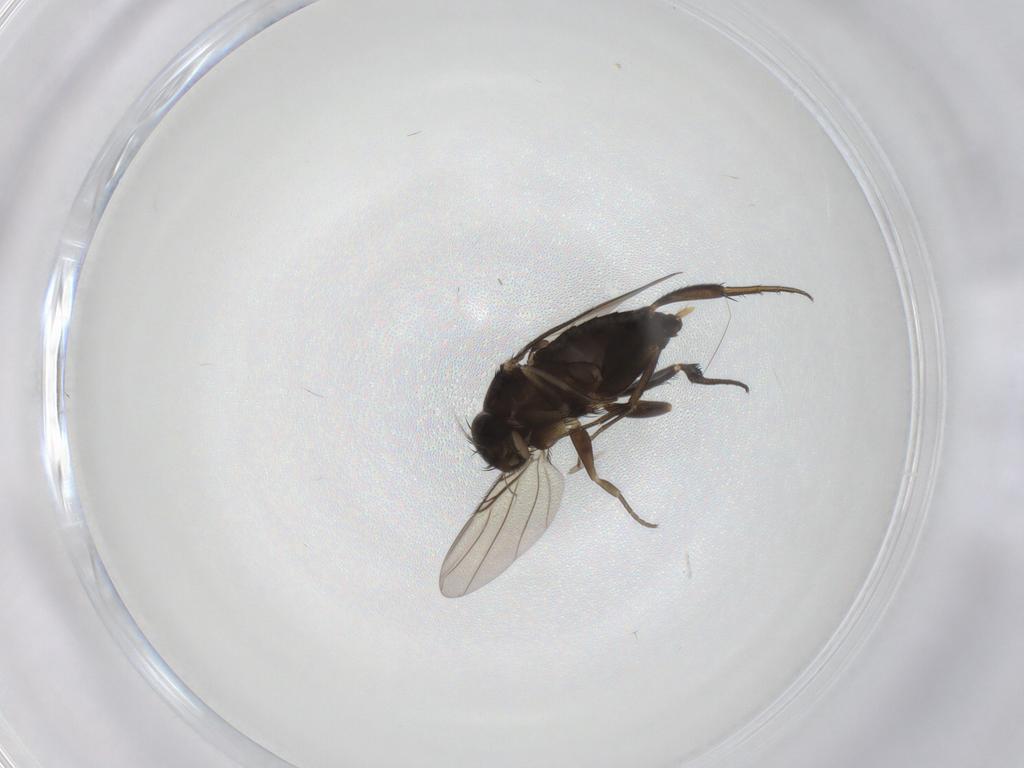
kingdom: Animalia
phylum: Arthropoda
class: Insecta
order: Diptera
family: Phoridae
